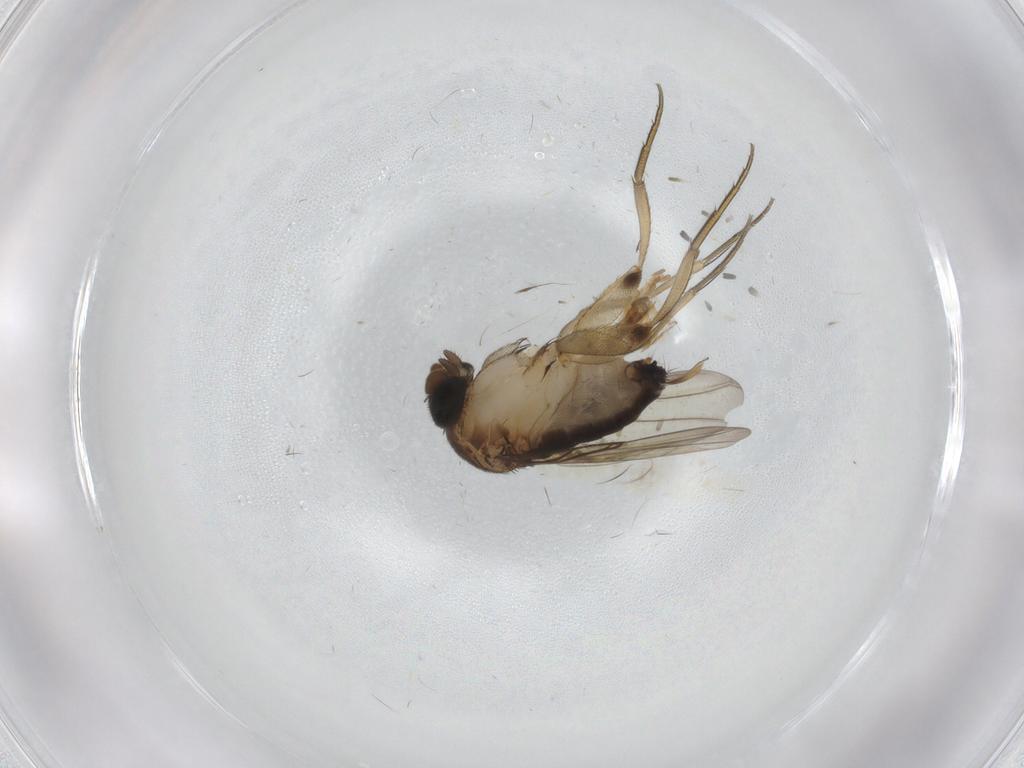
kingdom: Animalia
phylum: Arthropoda
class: Insecta
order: Diptera
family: Phoridae
